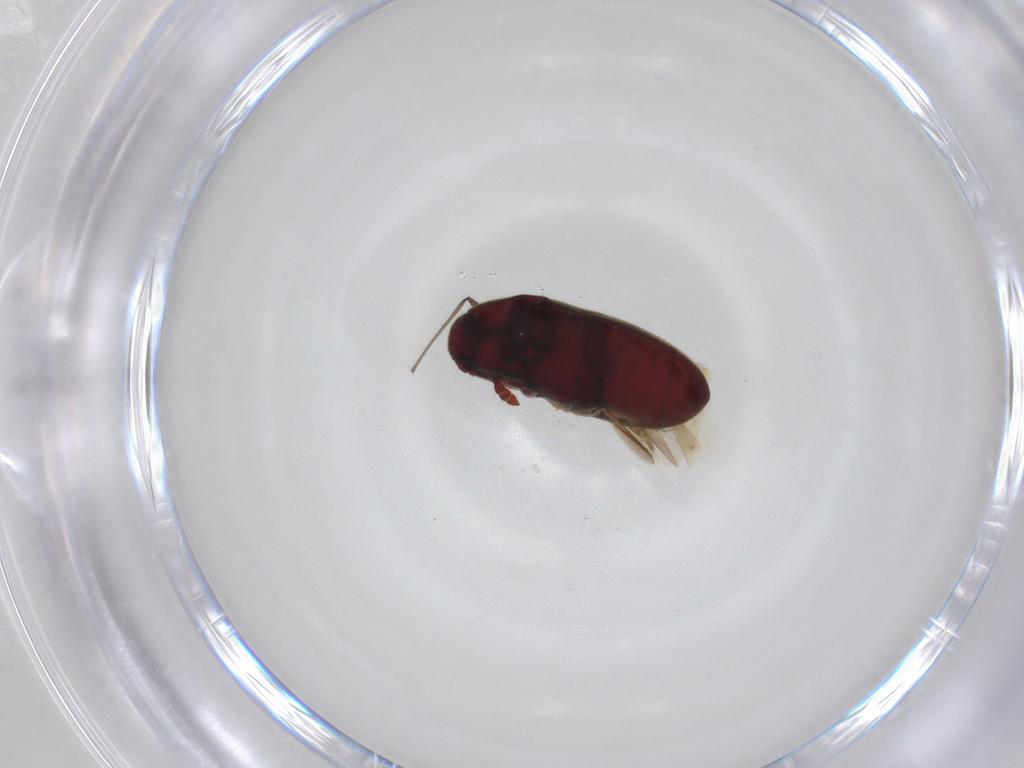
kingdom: Animalia
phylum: Arthropoda
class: Insecta
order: Coleoptera
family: Throscidae
